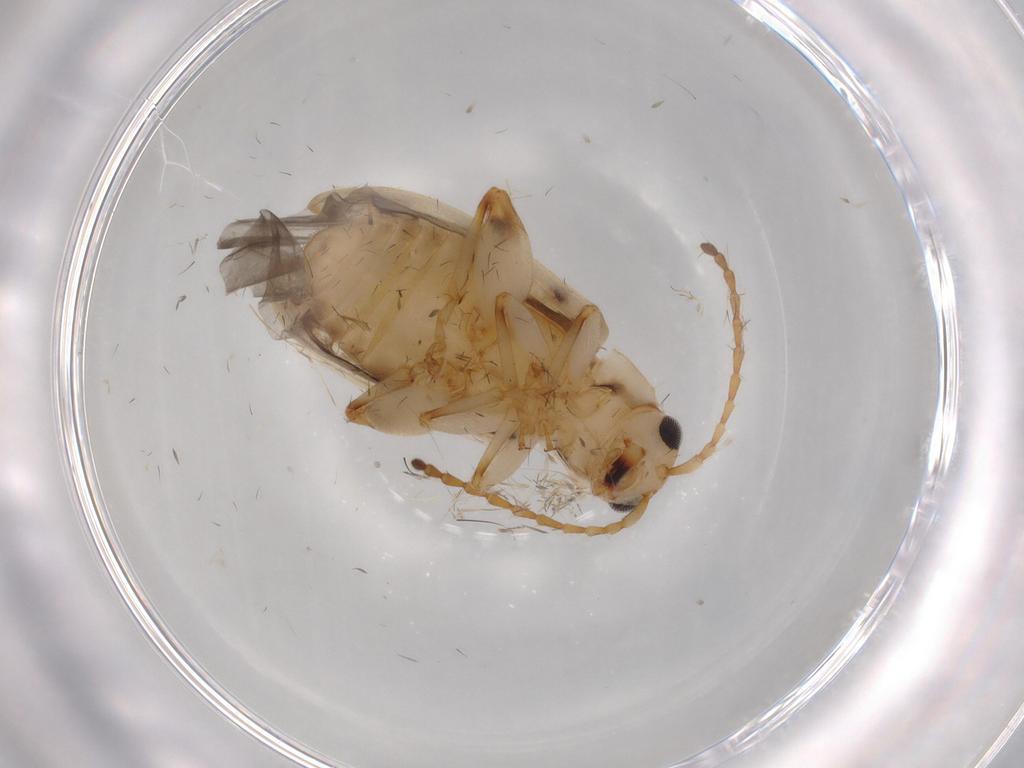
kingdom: Animalia
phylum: Arthropoda
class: Insecta
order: Coleoptera
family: Chrysomelidae
